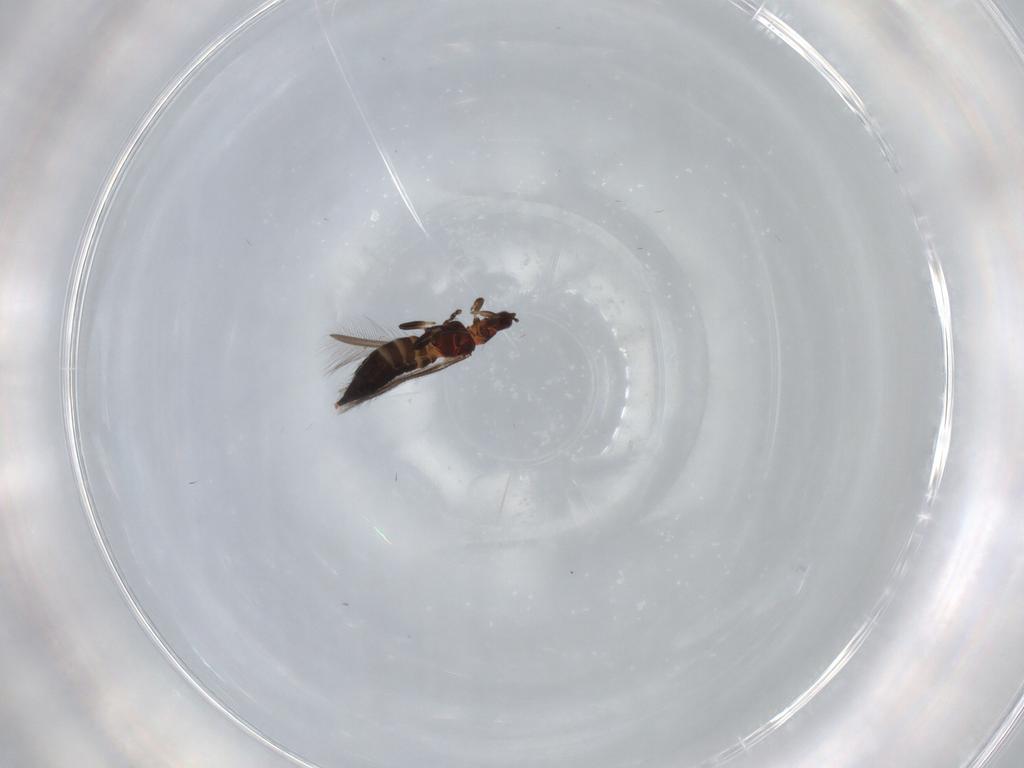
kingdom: Animalia
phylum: Arthropoda
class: Insecta
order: Thysanoptera
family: Thripidae
